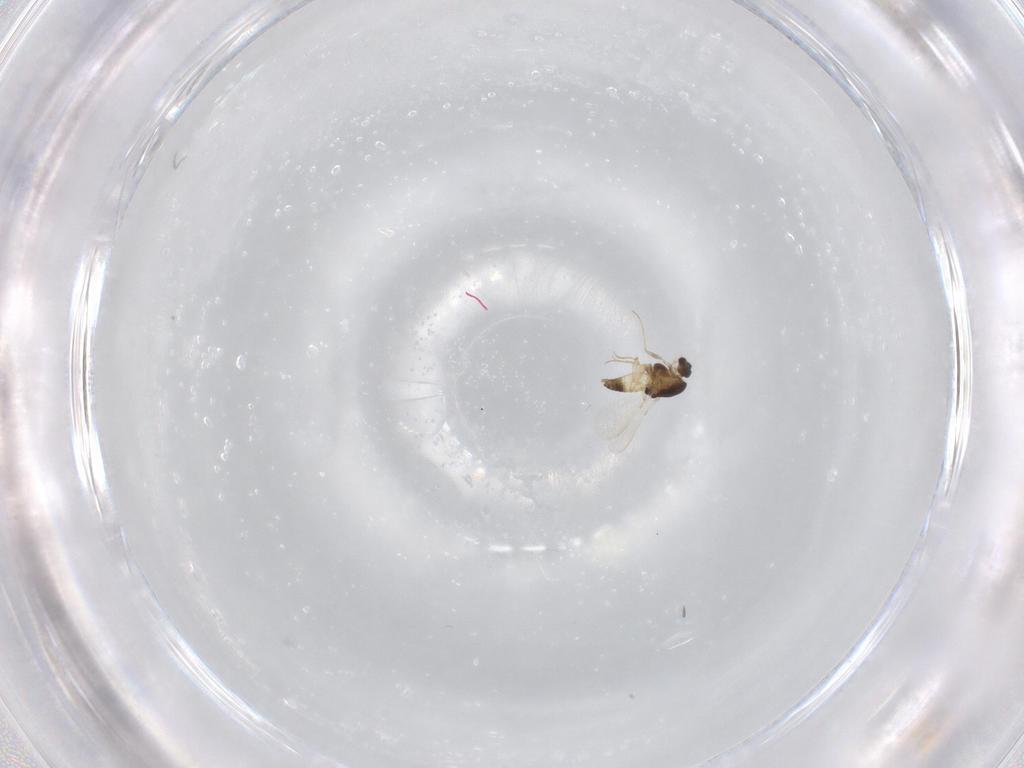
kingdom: Animalia
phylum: Arthropoda
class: Insecta
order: Diptera
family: Chironomidae
